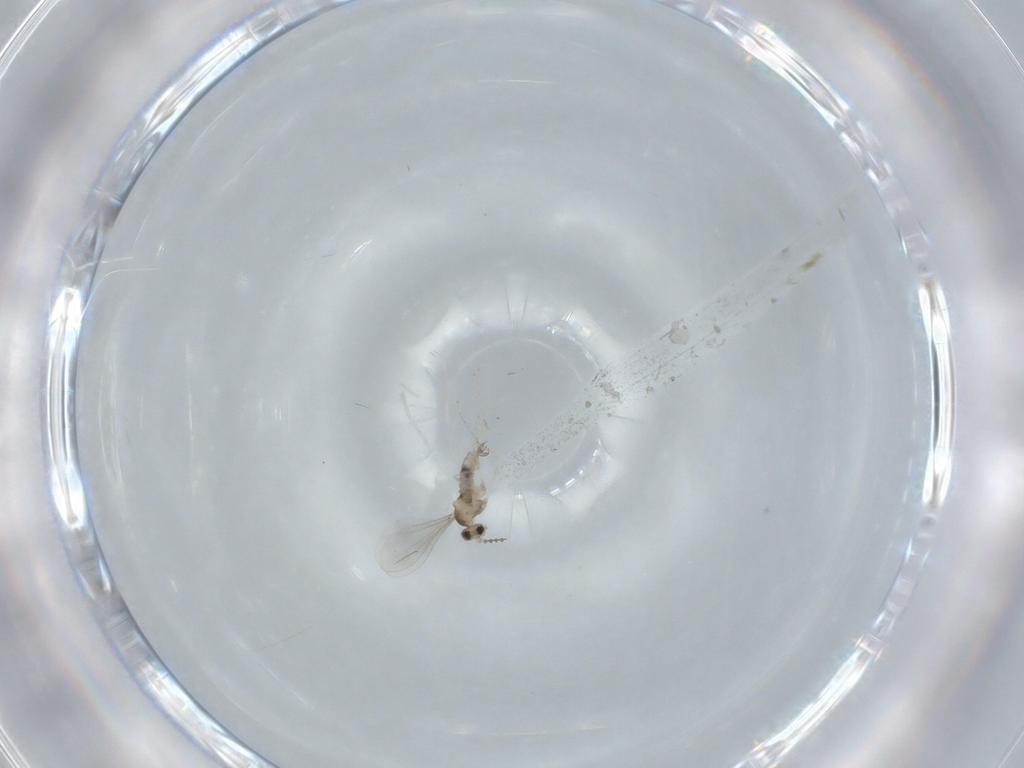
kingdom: Animalia
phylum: Arthropoda
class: Insecta
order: Diptera
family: Cecidomyiidae
